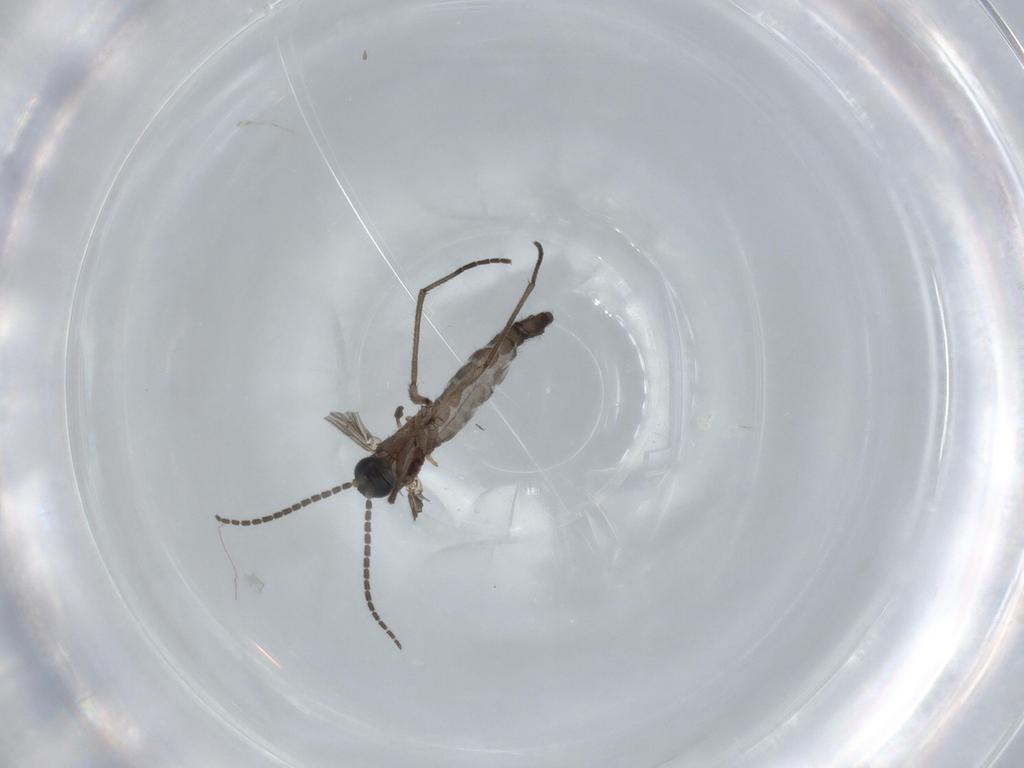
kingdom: Animalia
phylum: Arthropoda
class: Insecta
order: Diptera
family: Sciaridae
